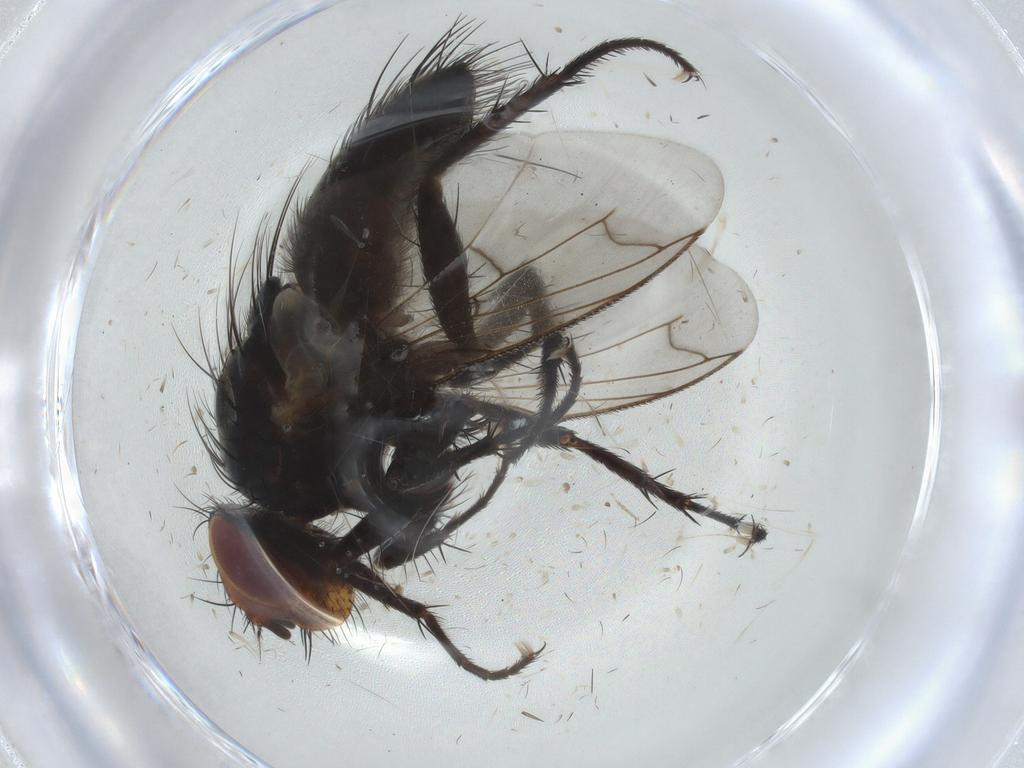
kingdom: Animalia
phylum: Arthropoda
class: Insecta
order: Diptera
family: Tachinidae
